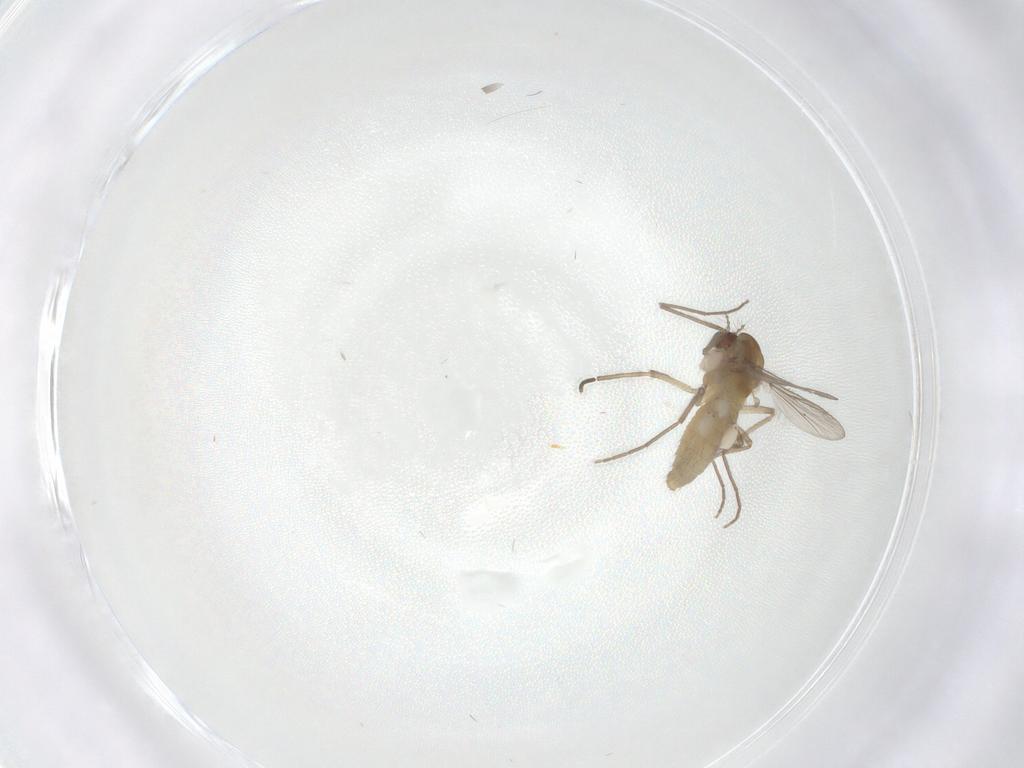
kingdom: Animalia
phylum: Arthropoda
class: Insecta
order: Diptera
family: Chironomidae
